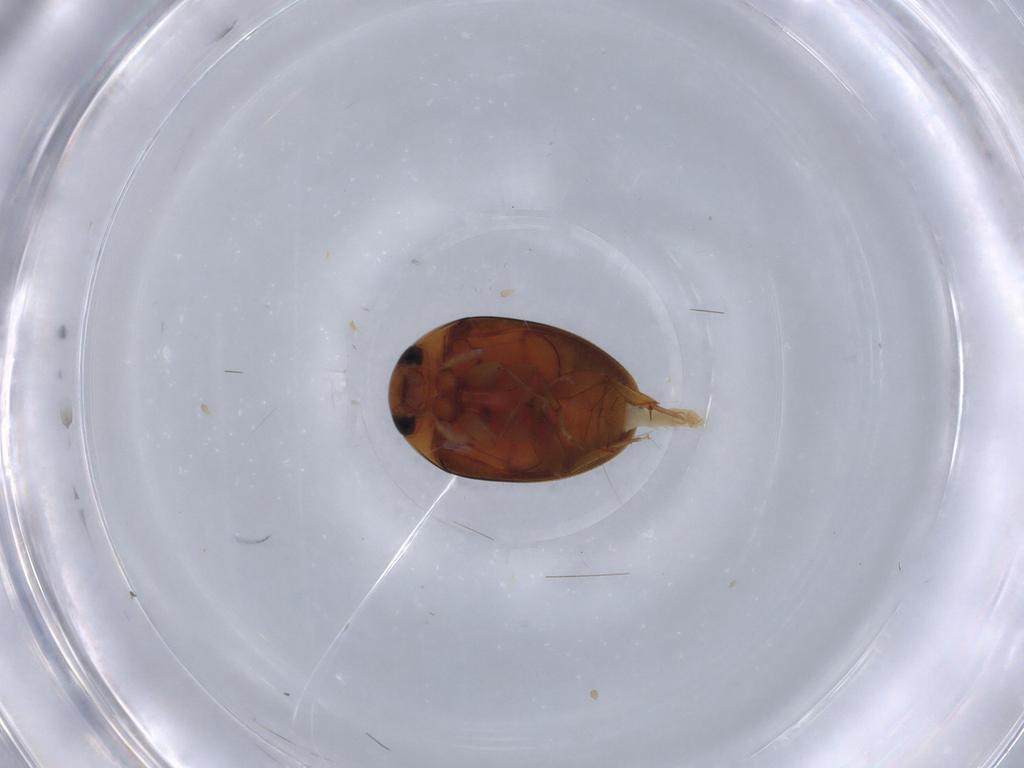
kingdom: Animalia
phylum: Arthropoda
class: Insecta
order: Coleoptera
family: Phalacridae
